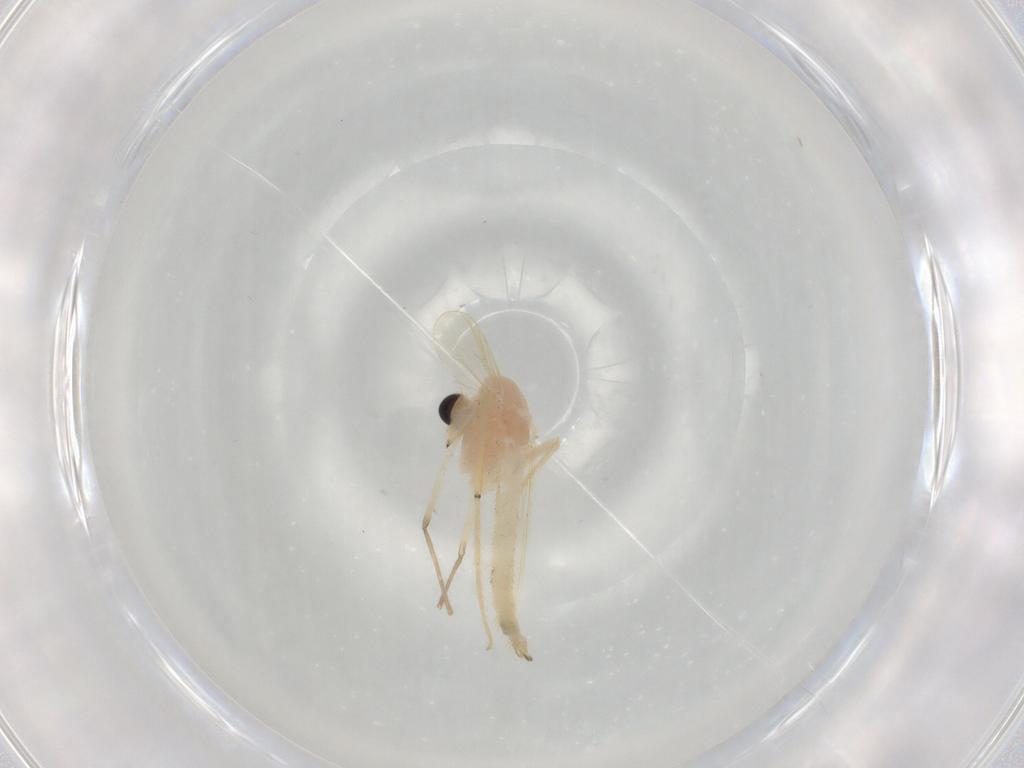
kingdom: Animalia
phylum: Arthropoda
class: Insecta
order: Diptera
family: Chironomidae
